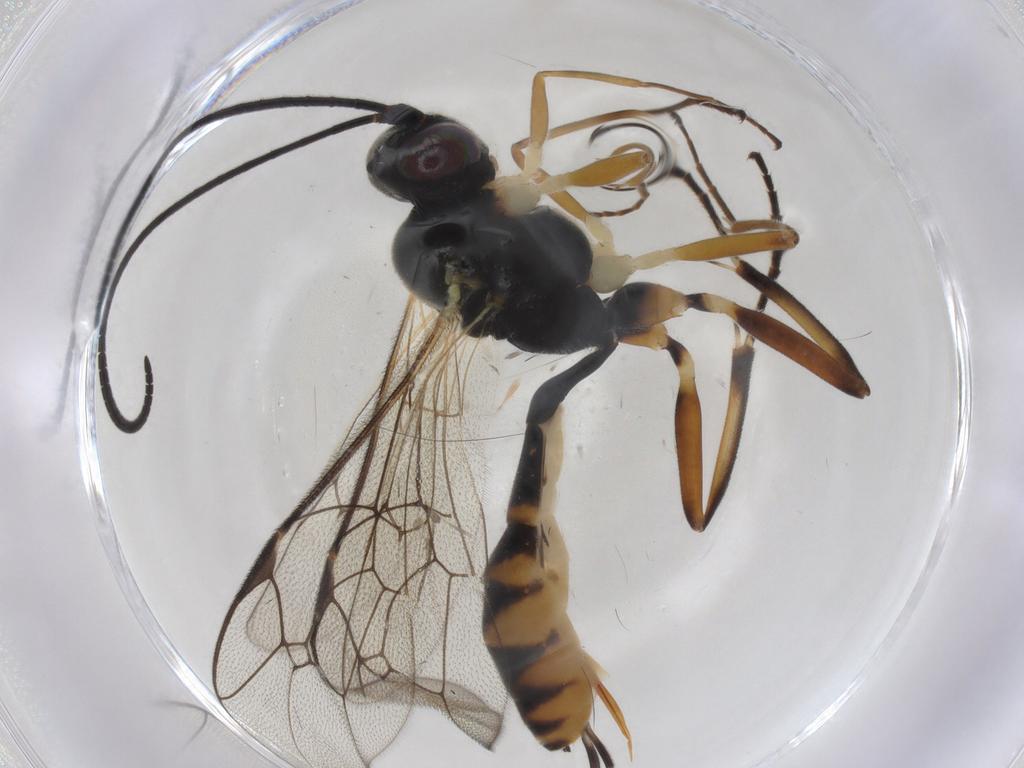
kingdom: Animalia
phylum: Arthropoda
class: Insecta
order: Hymenoptera
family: Ichneumonidae
